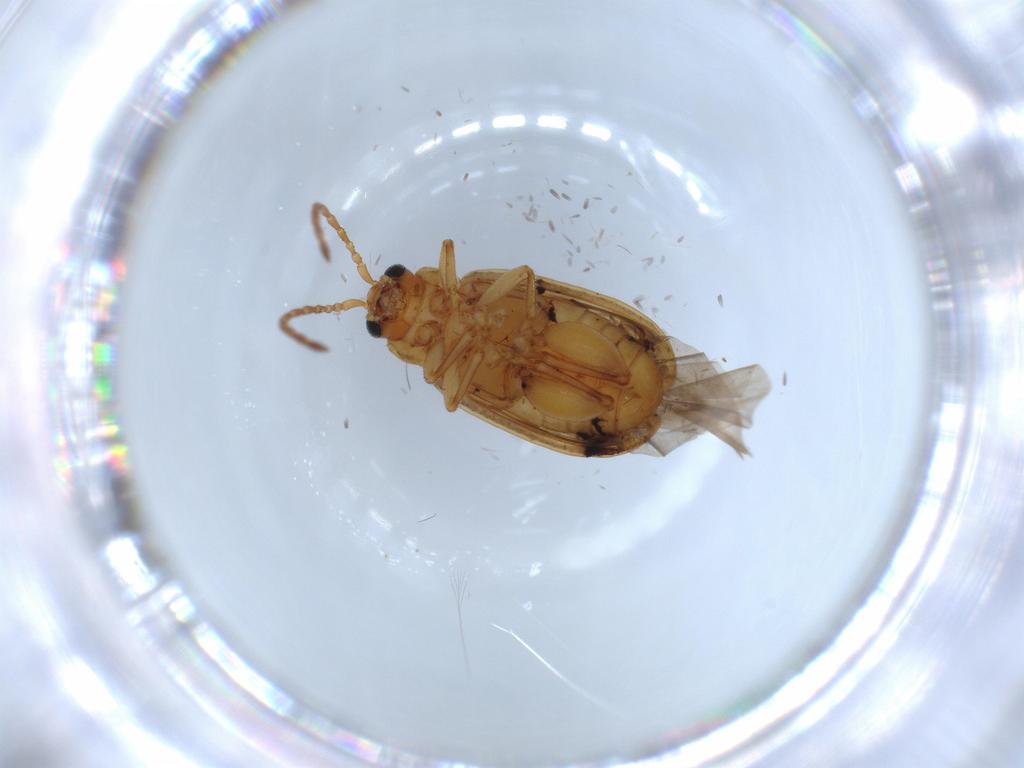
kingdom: Animalia
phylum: Arthropoda
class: Insecta
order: Coleoptera
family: Chrysomelidae
